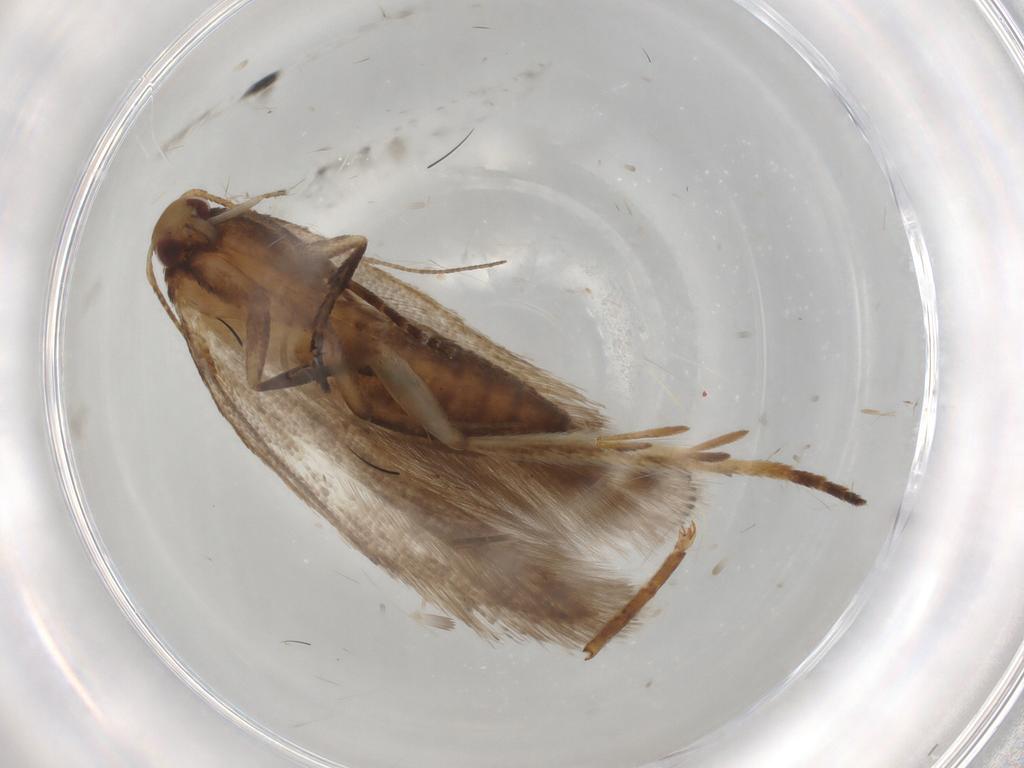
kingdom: Animalia
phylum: Arthropoda
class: Insecta
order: Lepidoptera
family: Gelechiidae
